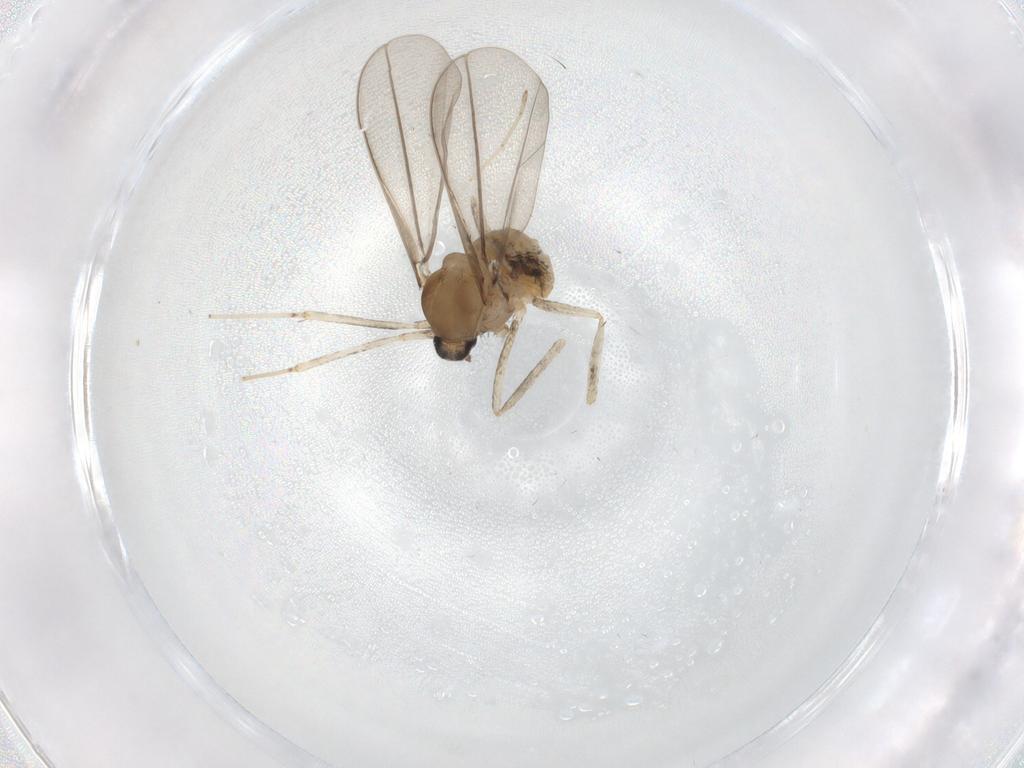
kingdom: Animalia
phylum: Arthropoda
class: Insecta
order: Diptera
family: Cecidomyiidae
